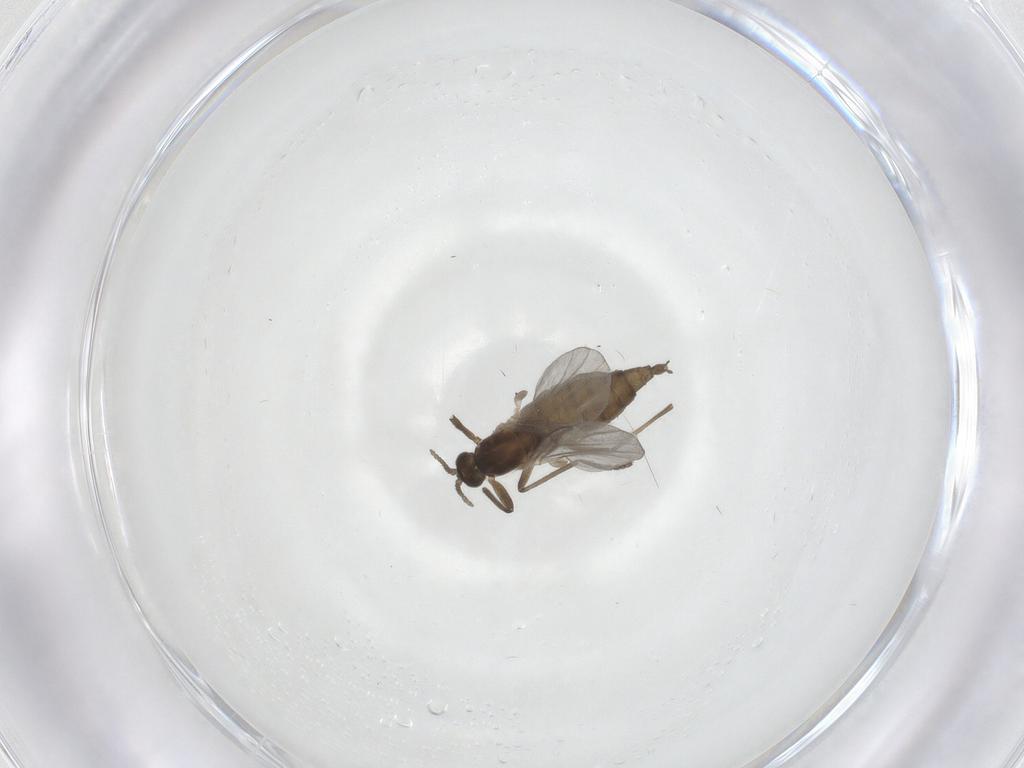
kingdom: Animalia
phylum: Arthropoda
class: Insecta
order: Diptera
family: Cecidomyiidae
